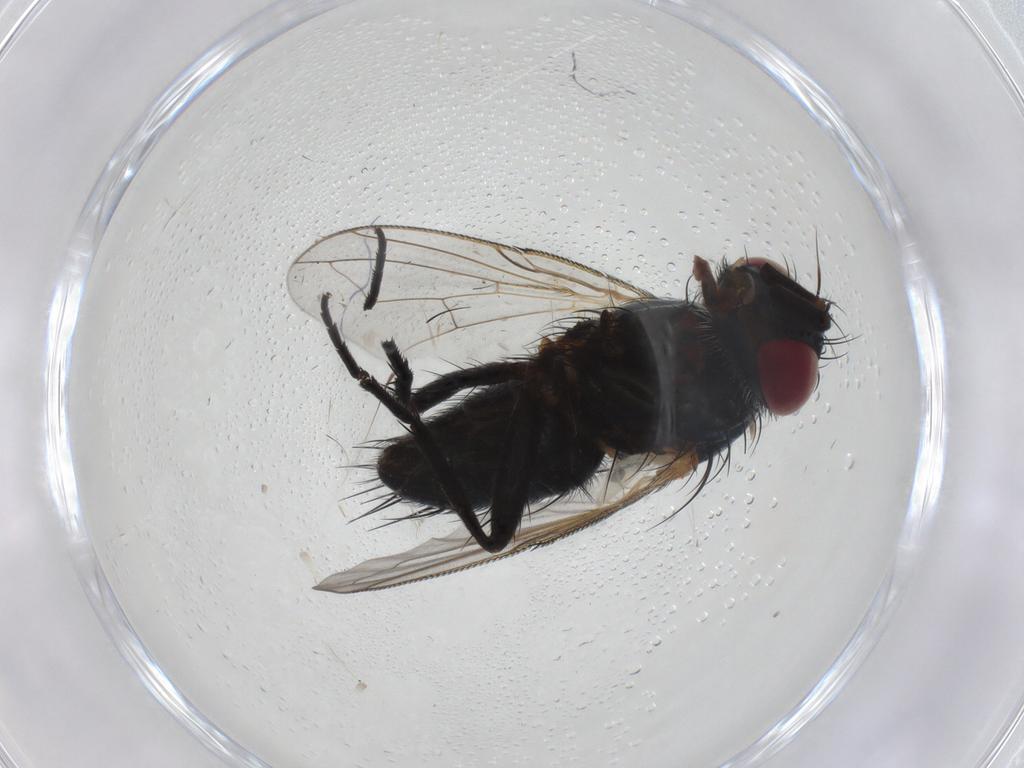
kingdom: Animalia
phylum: Arthropoda
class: Insecta
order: Diptera
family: Tachinidae
